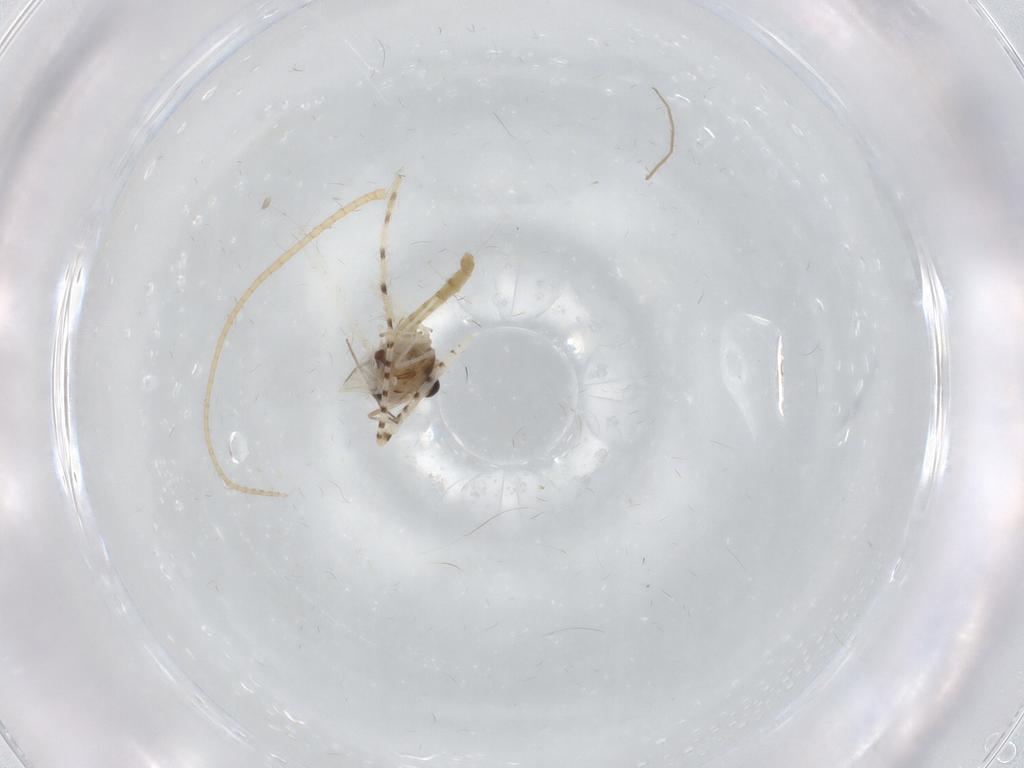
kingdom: Animalia
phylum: Arthropoda
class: Insecta
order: Diptera
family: Chironomidae
